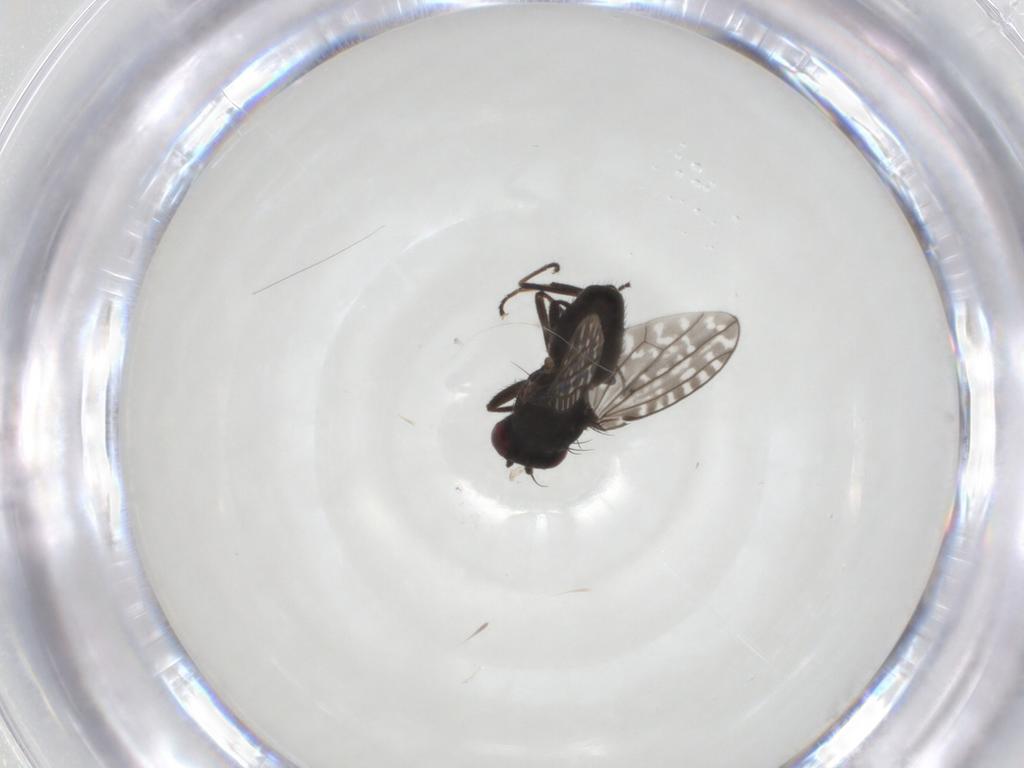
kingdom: Animalia
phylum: Arthropoda
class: Insecta
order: Diptera
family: Ephydridae
